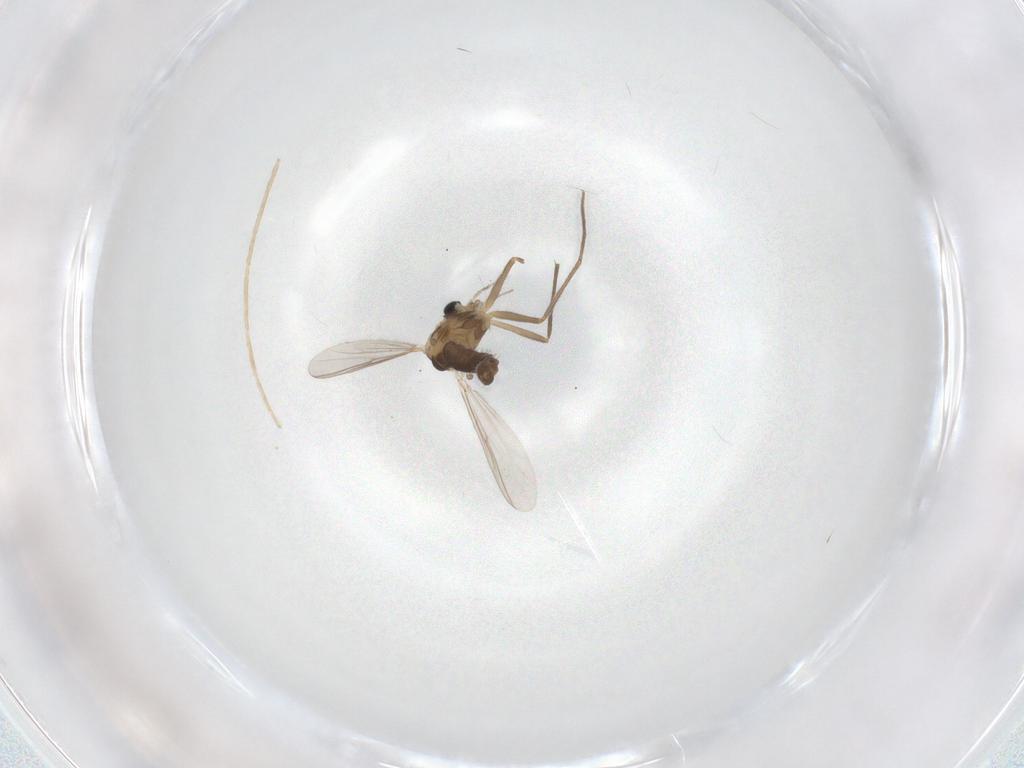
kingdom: Animalia
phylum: Arthropoda
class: Insecta
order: Diptera
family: Chironomidae
